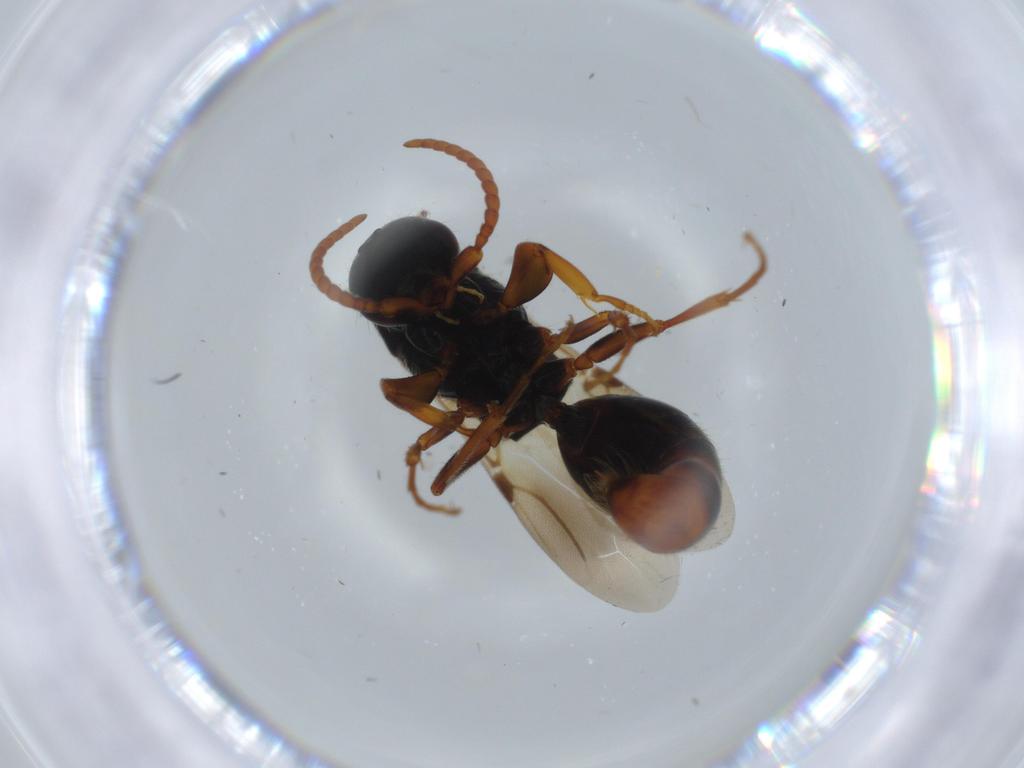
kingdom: Animalia
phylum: Arthropoda
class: Insecta
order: Hymenoptera
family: Bethylidae
